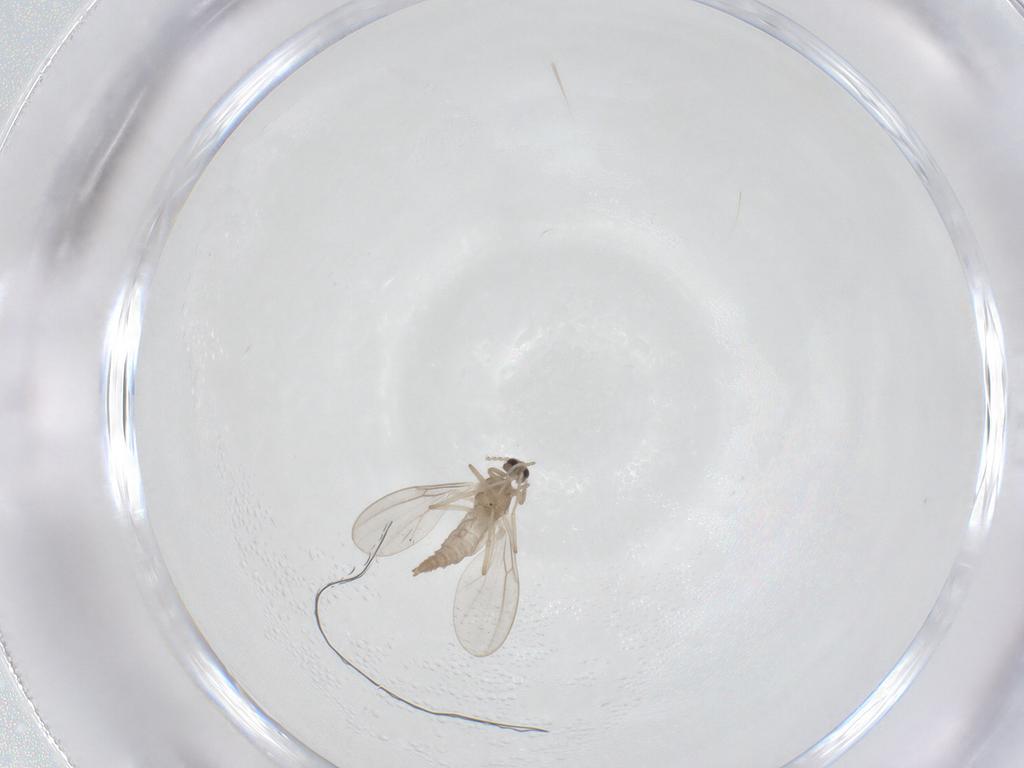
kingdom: Animalia
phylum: Arthropoda
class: Insecta
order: Diptera
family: Cecidomyiidae
